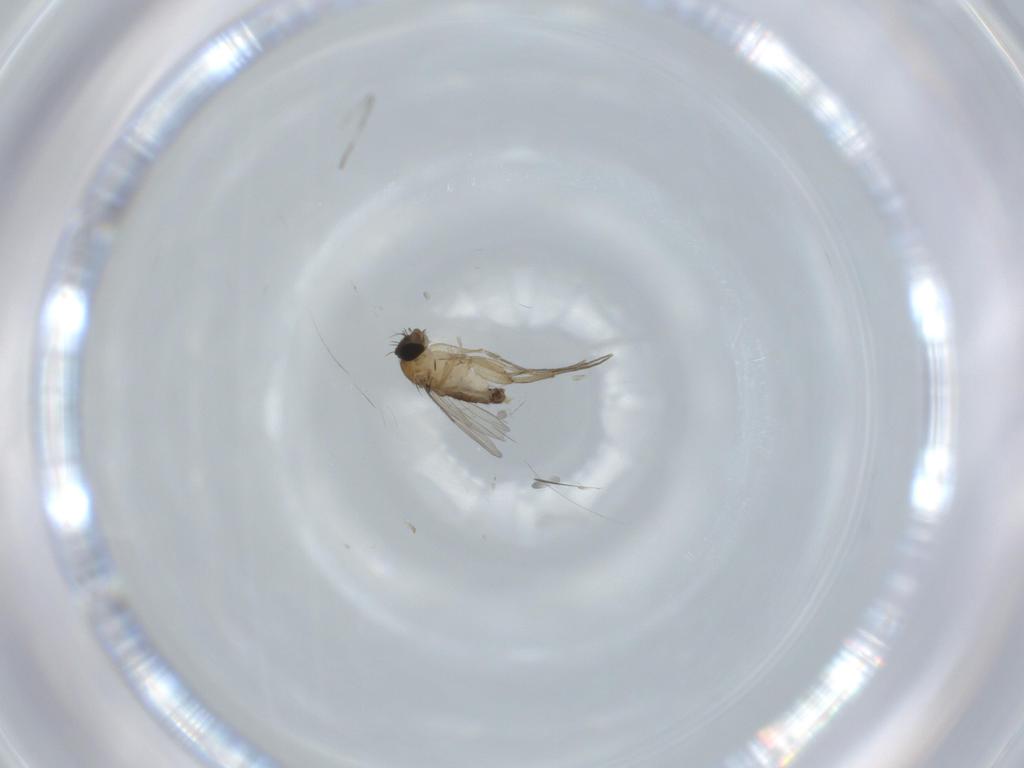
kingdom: Animalia
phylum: Arthropoda
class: Insecta
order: Diptera
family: Phoridae
